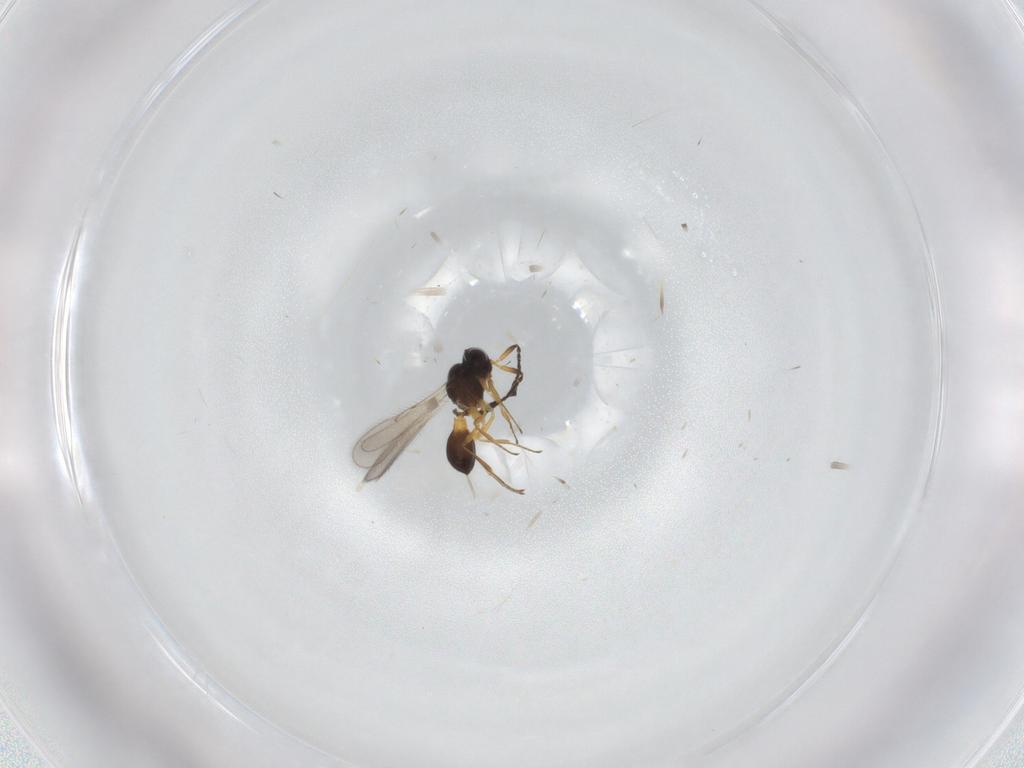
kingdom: Animalia
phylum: Arthropoda
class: Insecta
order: Hymenoptera
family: Scelionidae
